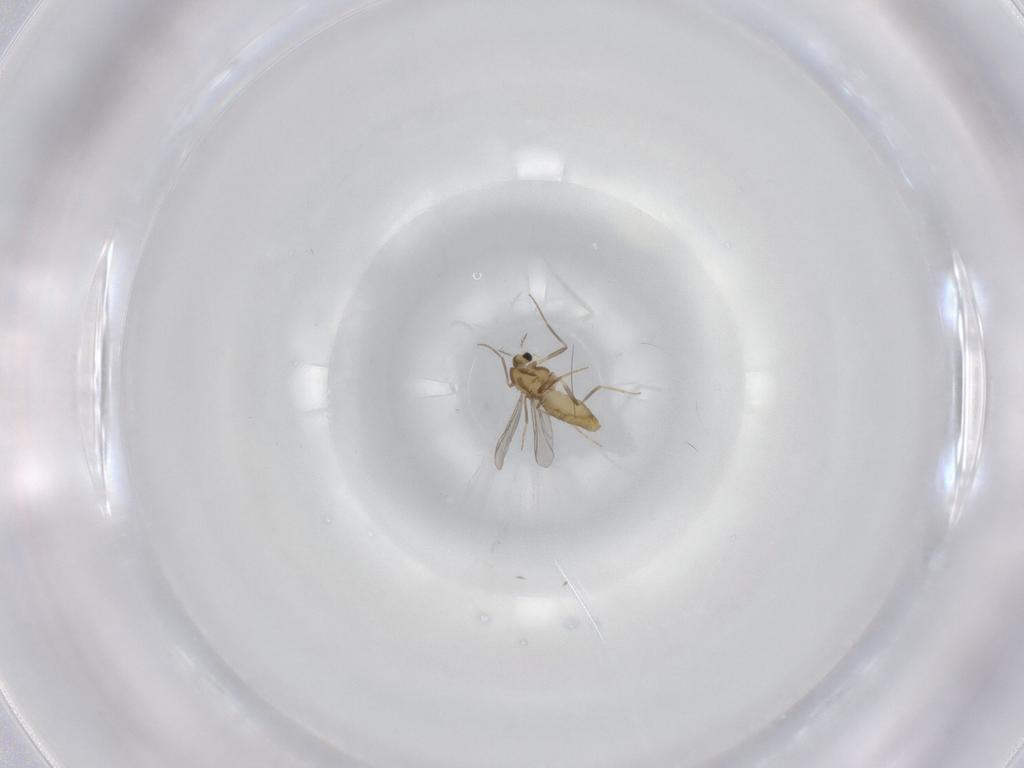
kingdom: Animalia
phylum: Arthropoda
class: Insecta
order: Diptera
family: Chironomidae
